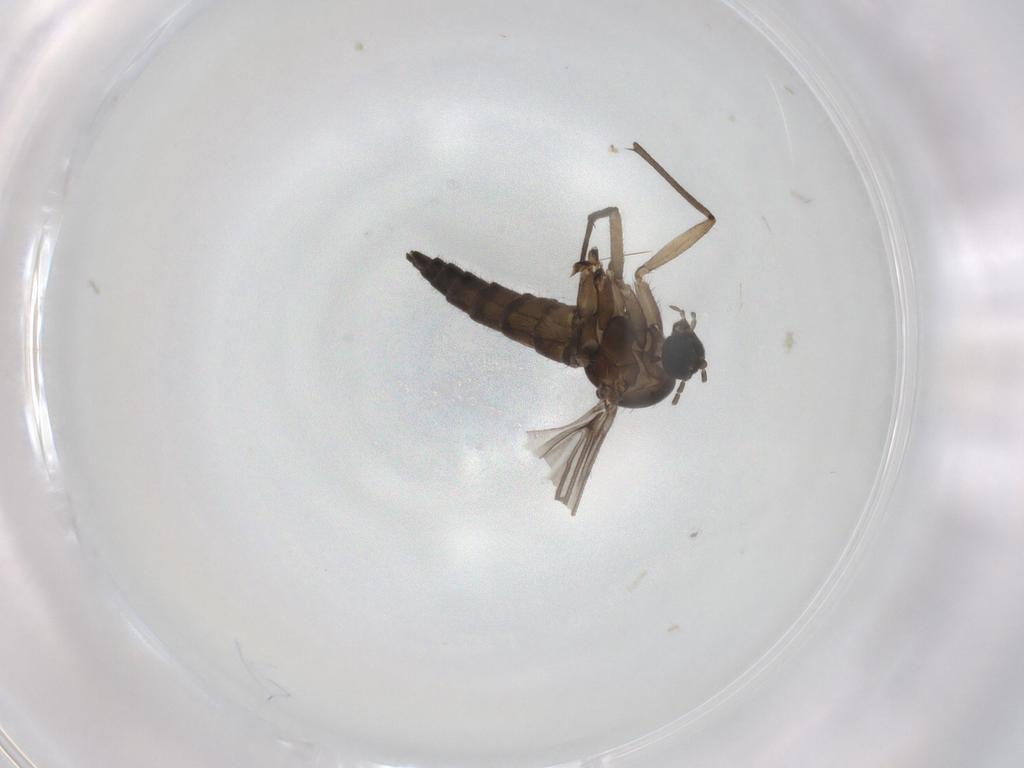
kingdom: Animalia
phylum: Arthropoda
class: Insecta
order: Diptera
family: Sciaridae
